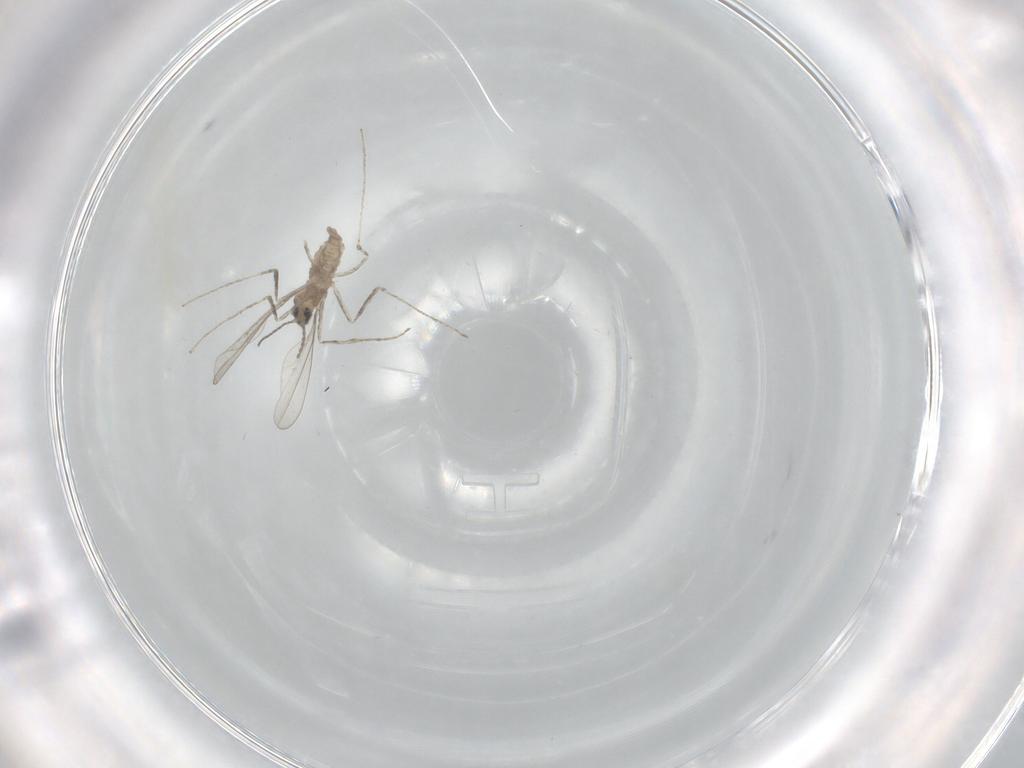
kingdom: Animalia
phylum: Arthropoda
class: Insecta
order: Diptera
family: Cecidomyiidae
